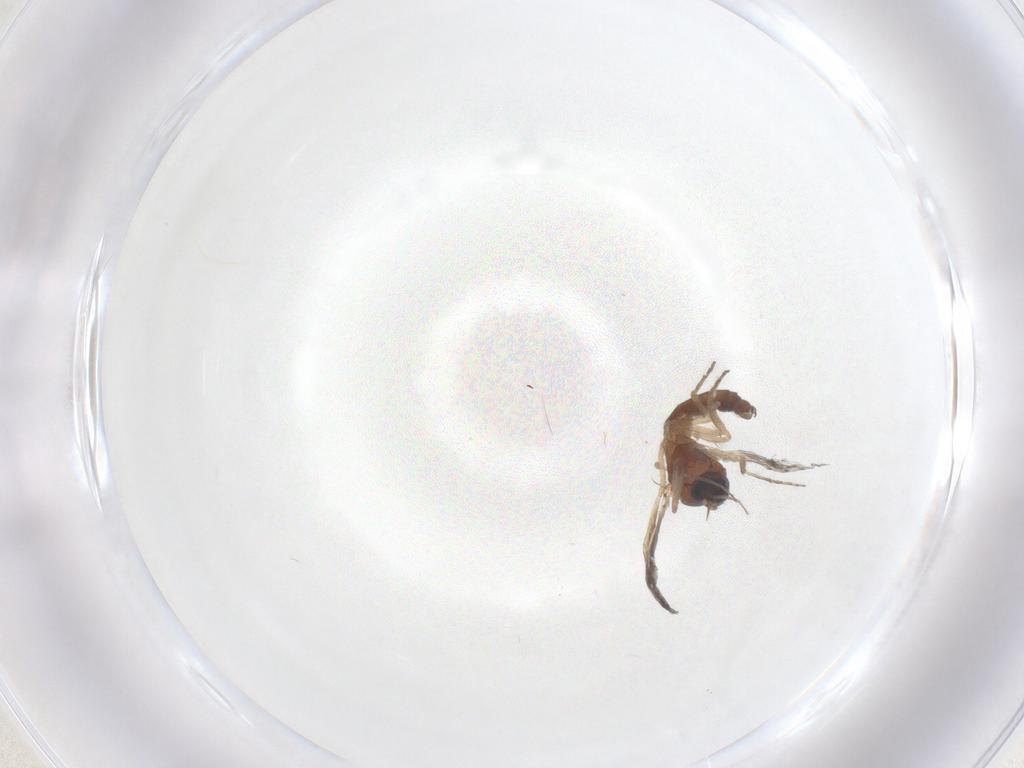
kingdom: Animalia
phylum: Arthropoda
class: Insecta
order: Diptera
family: Ceratopogonidae
